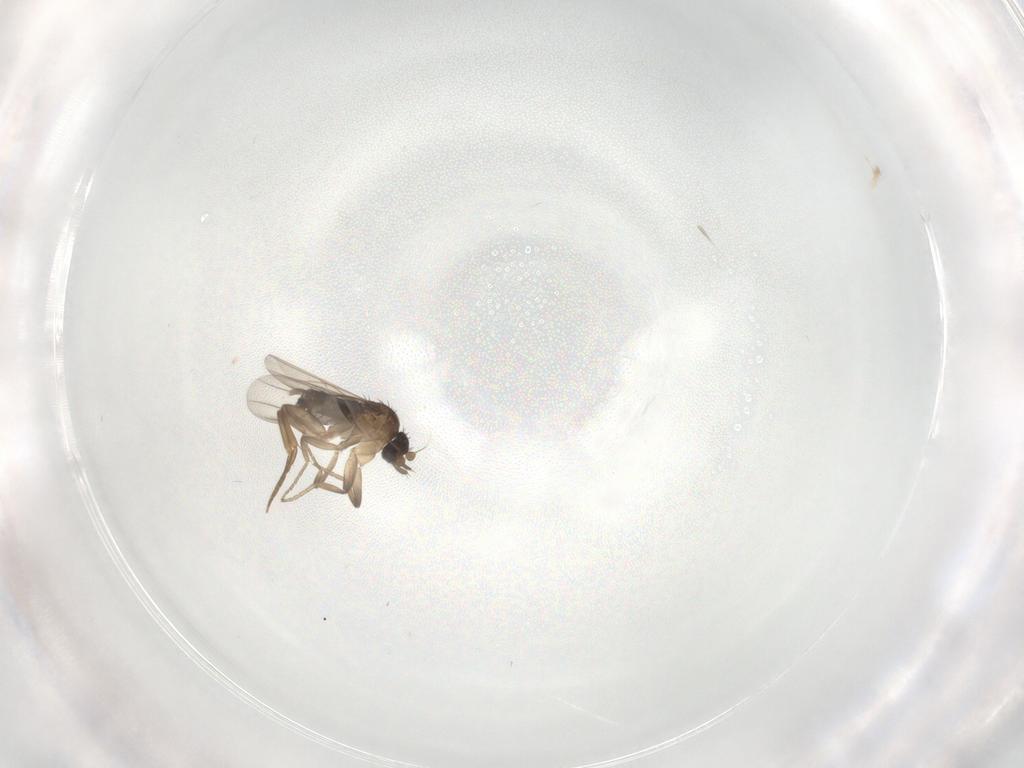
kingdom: Animalia
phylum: Arthropoda
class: Insecta
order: Diptera
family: Phoridae
